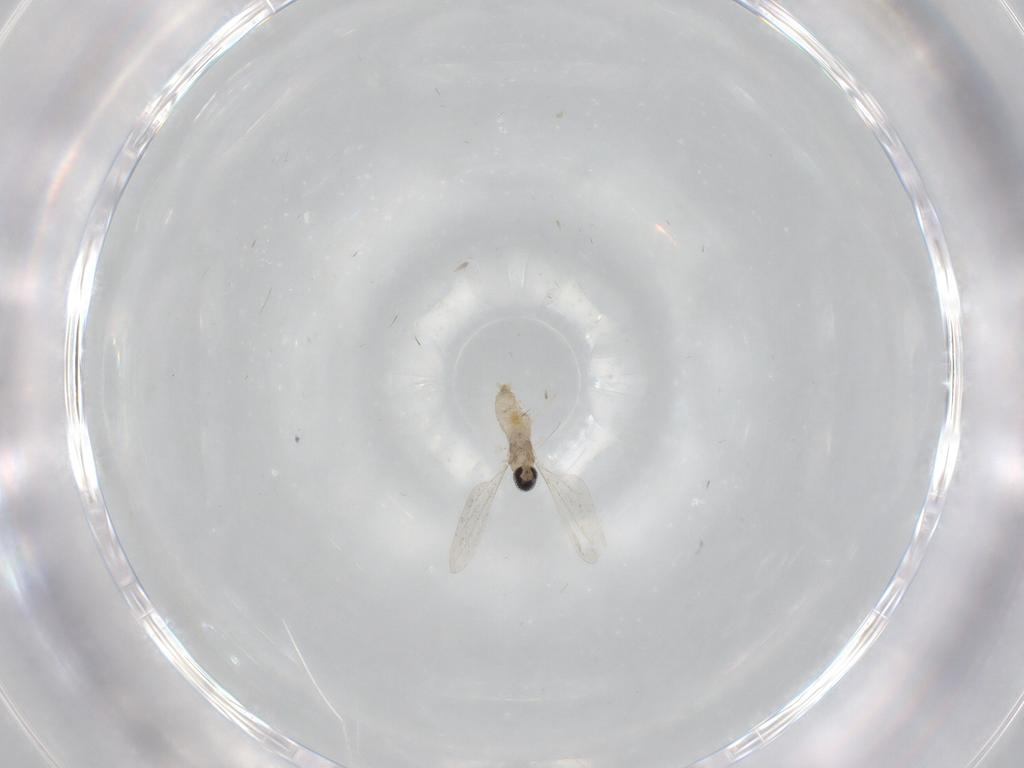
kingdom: Animalia
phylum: Arthropoda
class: Insecta
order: Diptera
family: Cecidomyiidae
